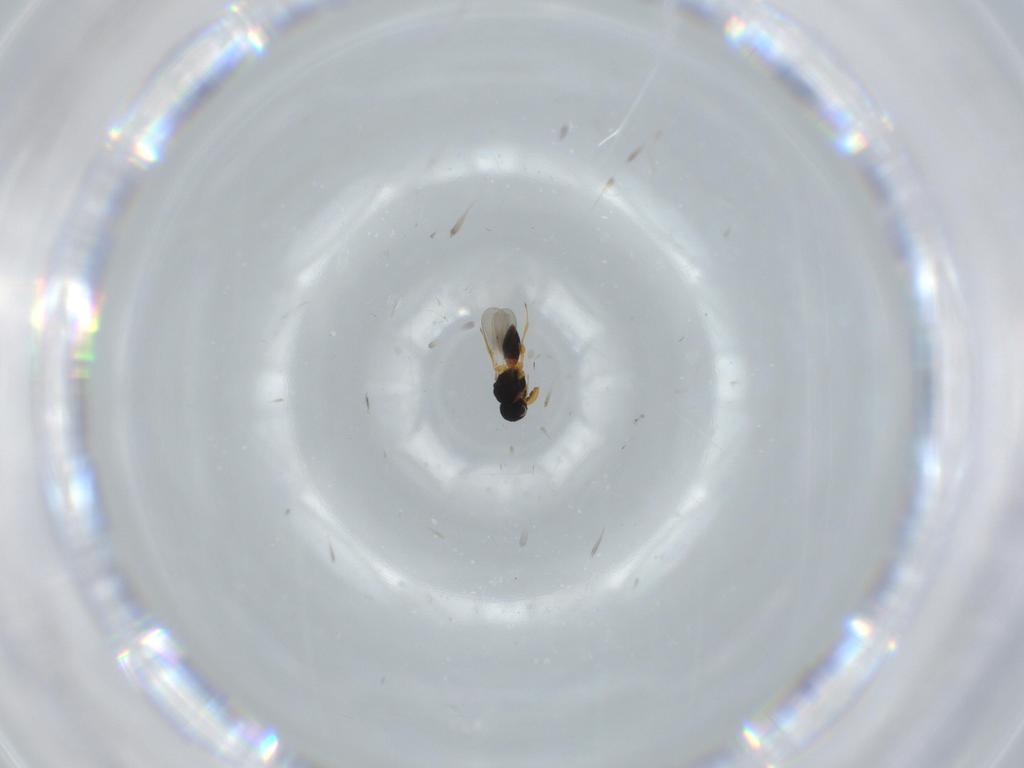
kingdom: Animalia
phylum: Arthropoda
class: Insecta
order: Hymenoptera
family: Platygastridae
